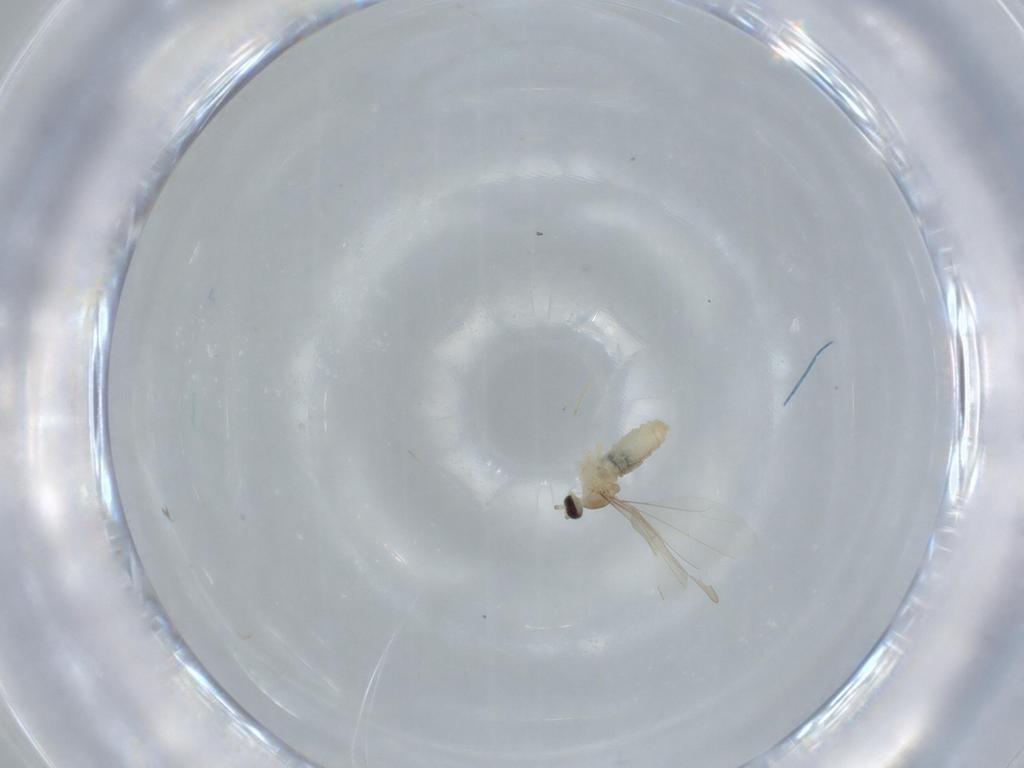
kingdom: Animalia
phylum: Arthropoda
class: Insecta
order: Diptera
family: Cecidomyiidae
